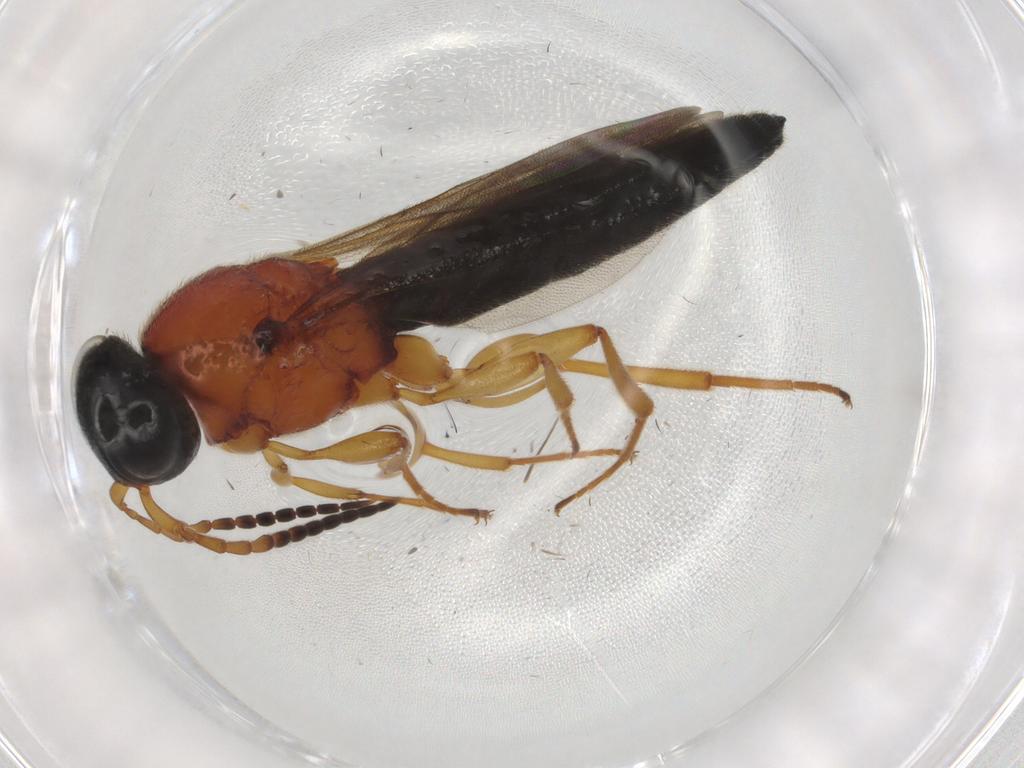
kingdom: Animalia
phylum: Arthropoda
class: Insecta
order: Hymenoptera
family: Scelionidae
